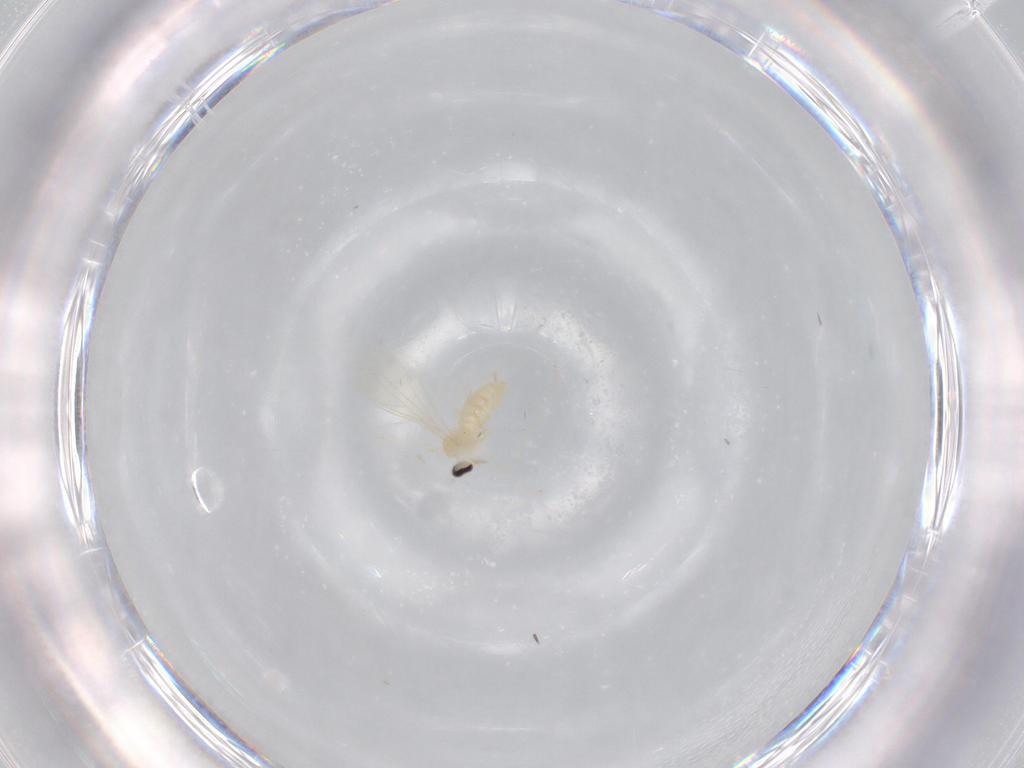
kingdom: Animalia
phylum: Arthropoda
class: Insecta
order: Diptera
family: Cecidomyiidae
